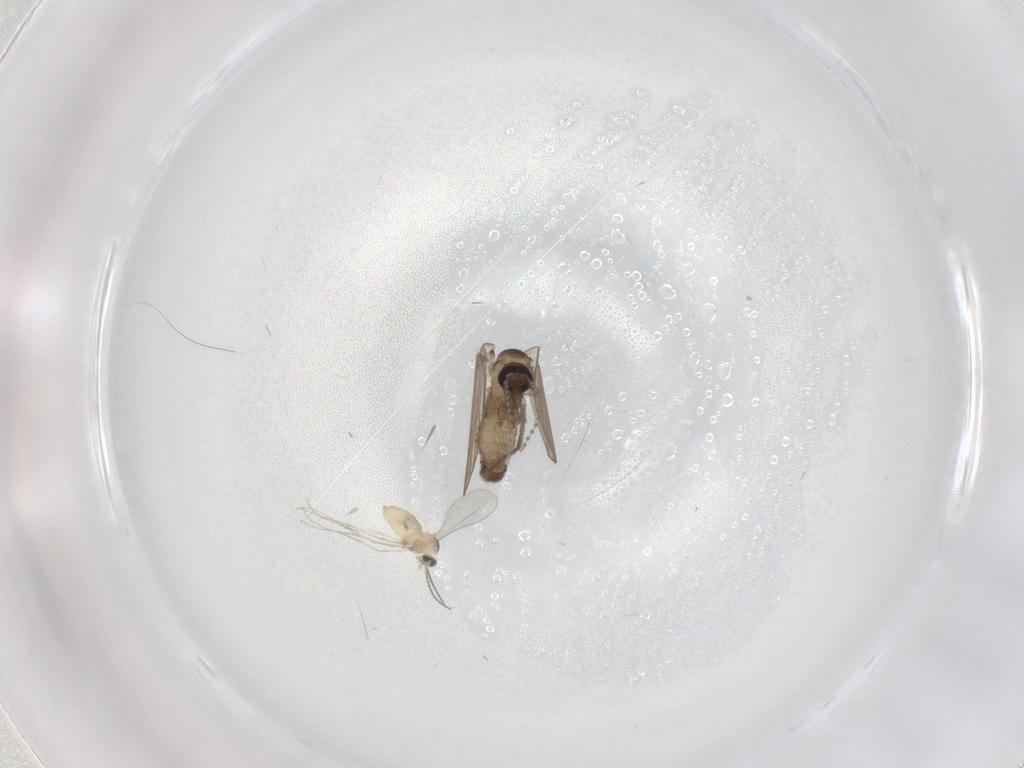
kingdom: Animalia
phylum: Arthropoda
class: Insecta
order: Diptera
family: Psychodidae
